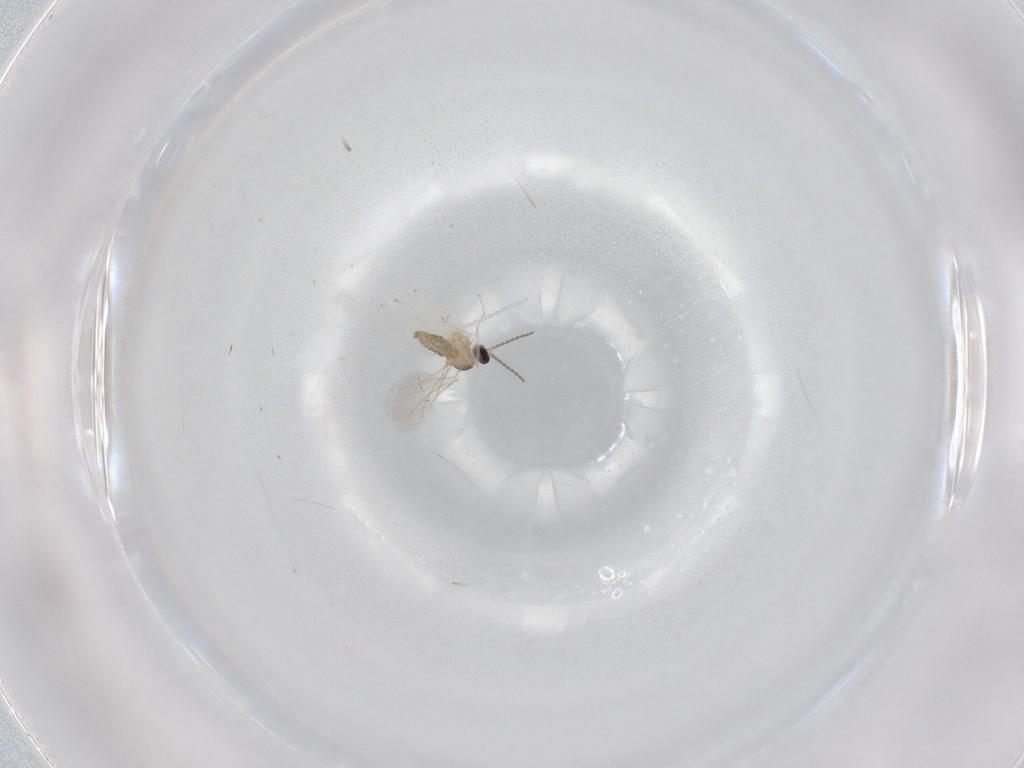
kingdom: Animalia
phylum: Arthropoda
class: Insecta
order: Diptera
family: Cecidomyiidae
